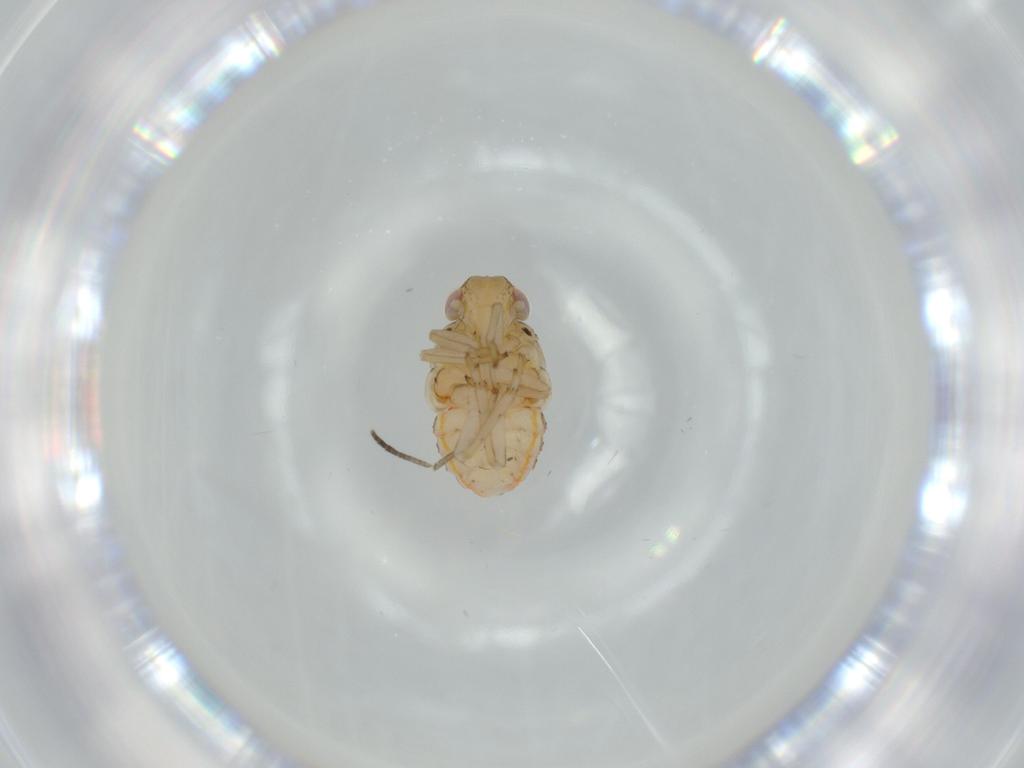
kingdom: Animalia
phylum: Arthropoda
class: Insecta
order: Hemiptera
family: Issidae
